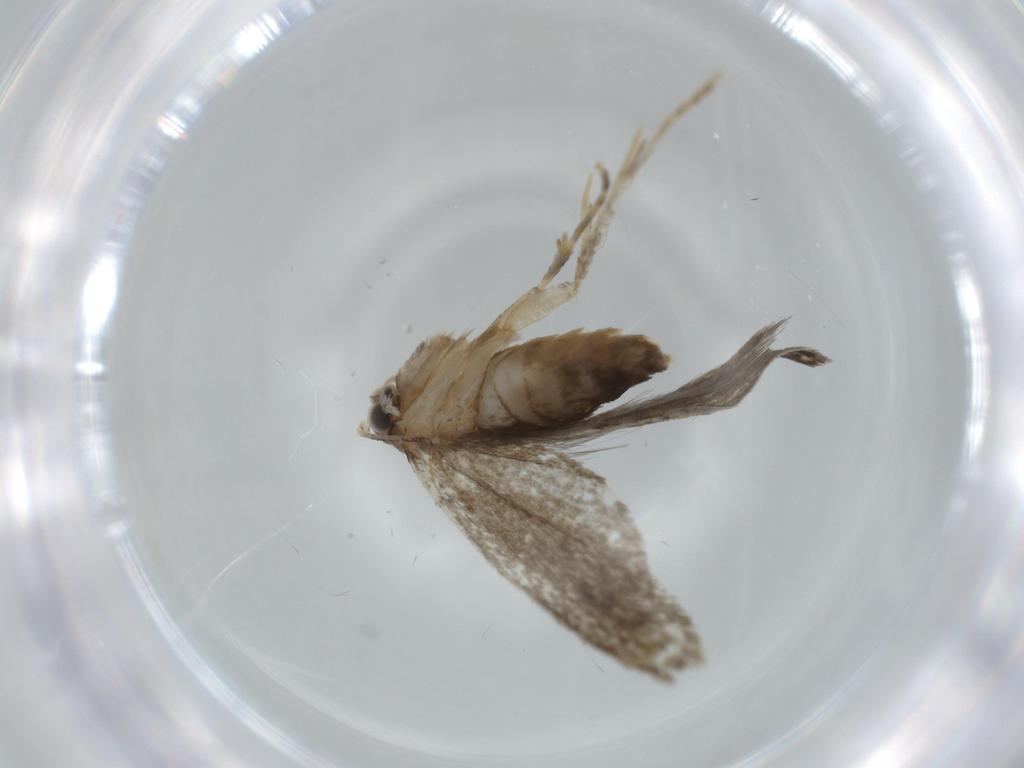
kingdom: Animalia
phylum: Arthropoda
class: Insecta
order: Lepidoptera
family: Tineidae
